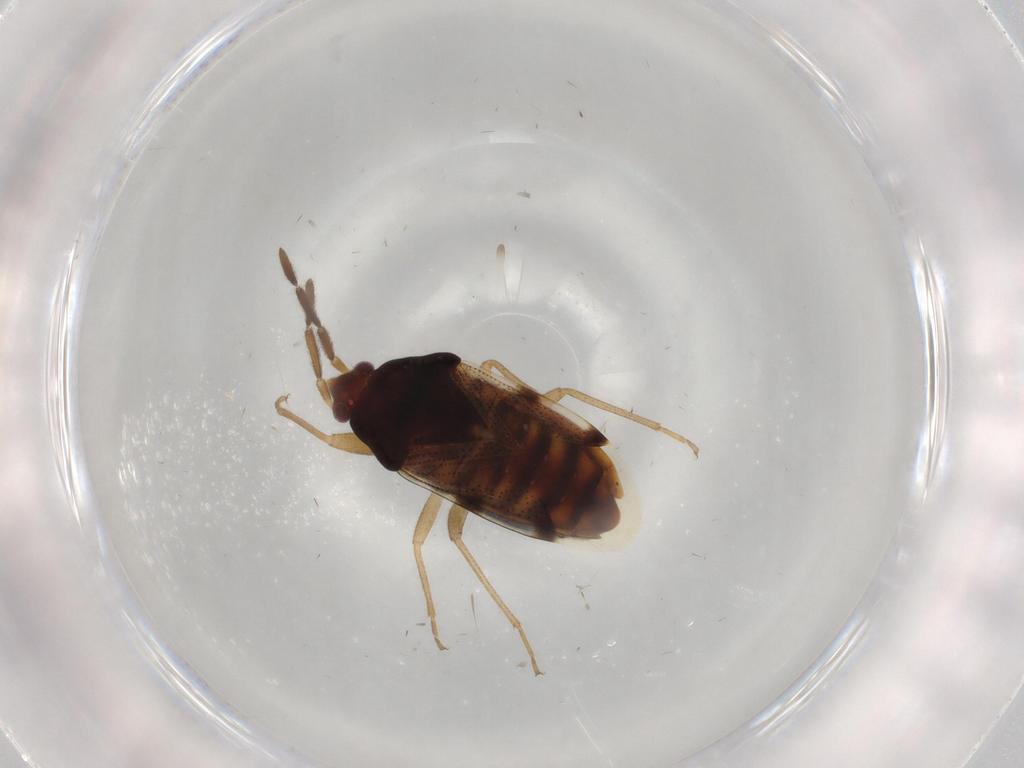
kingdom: Animalia
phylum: Arthropoda
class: Insecta
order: Hemiptera
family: Rhyparochromidae
